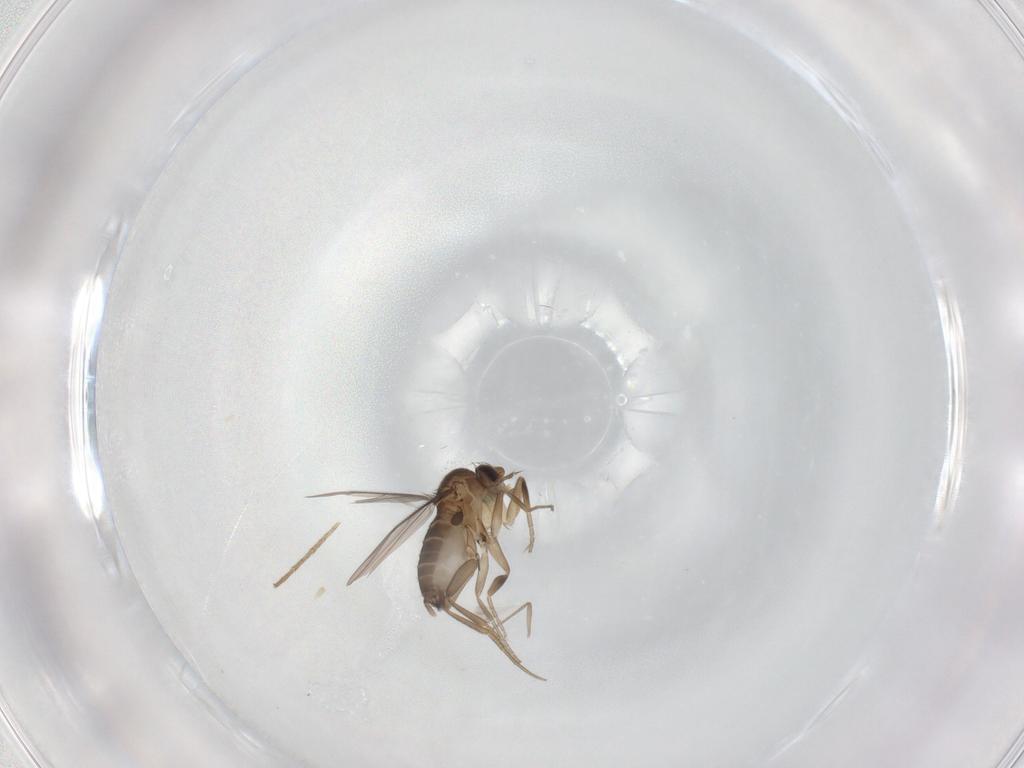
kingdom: Animalia
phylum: Arthropoda
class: Insecta
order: Diptera
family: Phoridae
